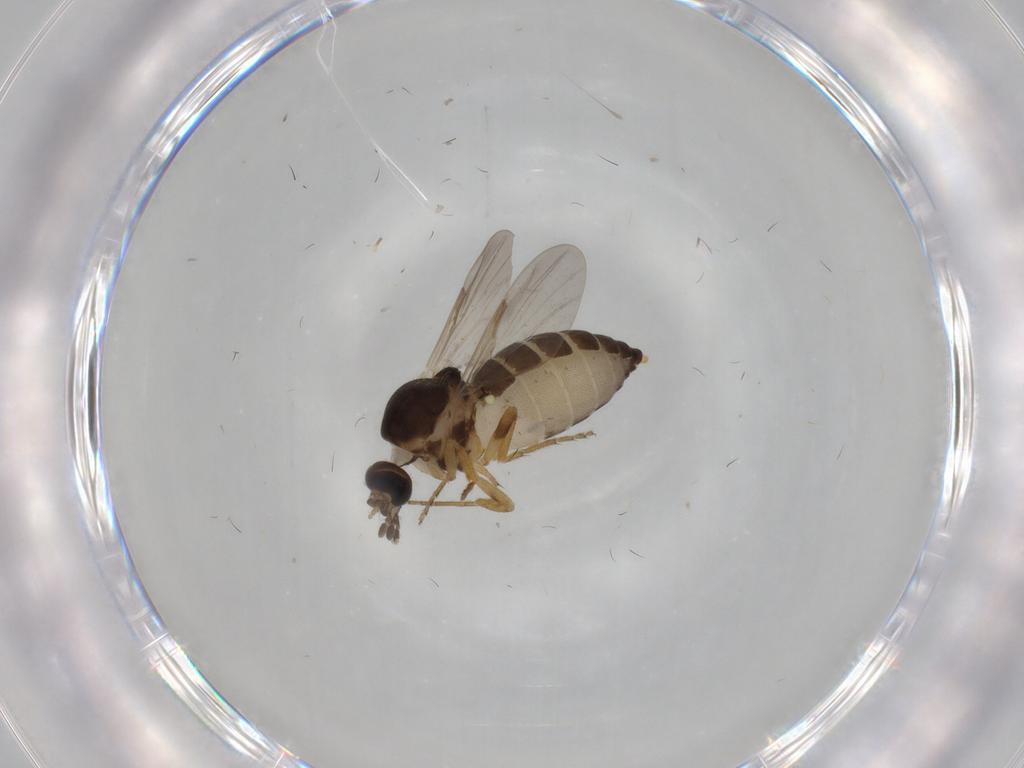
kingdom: Animalia
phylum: Arthropoda
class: Insecta
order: Diptera
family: Ceratopogonidae
